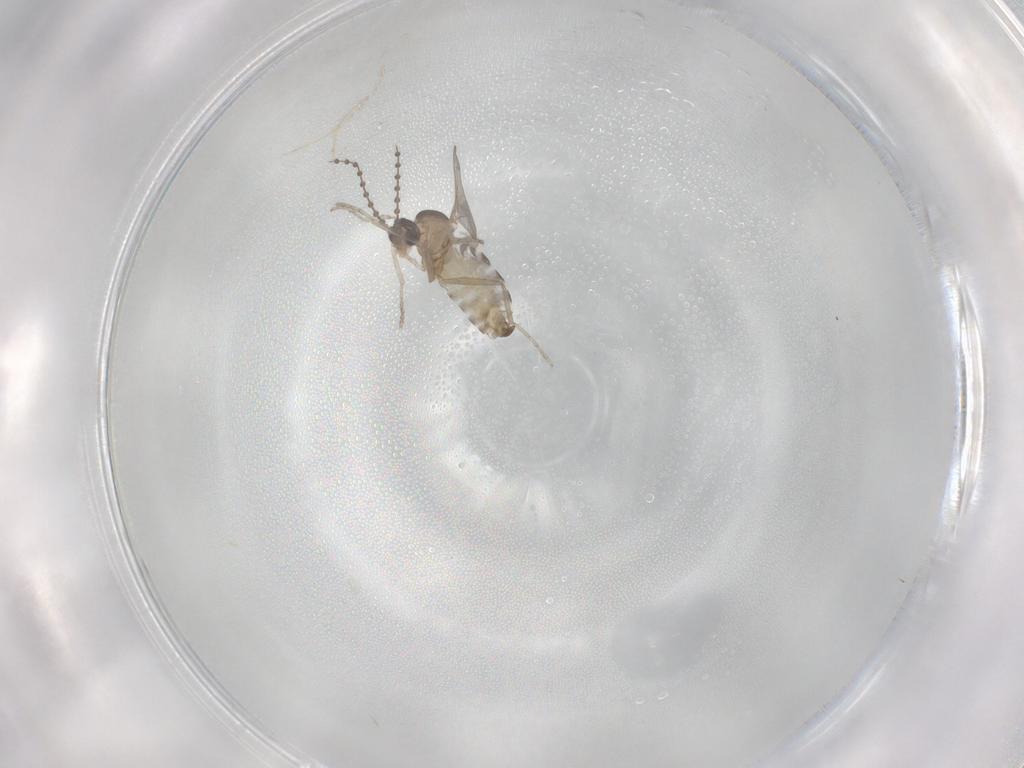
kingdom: Animalia
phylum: Arthropoda
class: Insecta
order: Diptera
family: Cecidomyiidae
